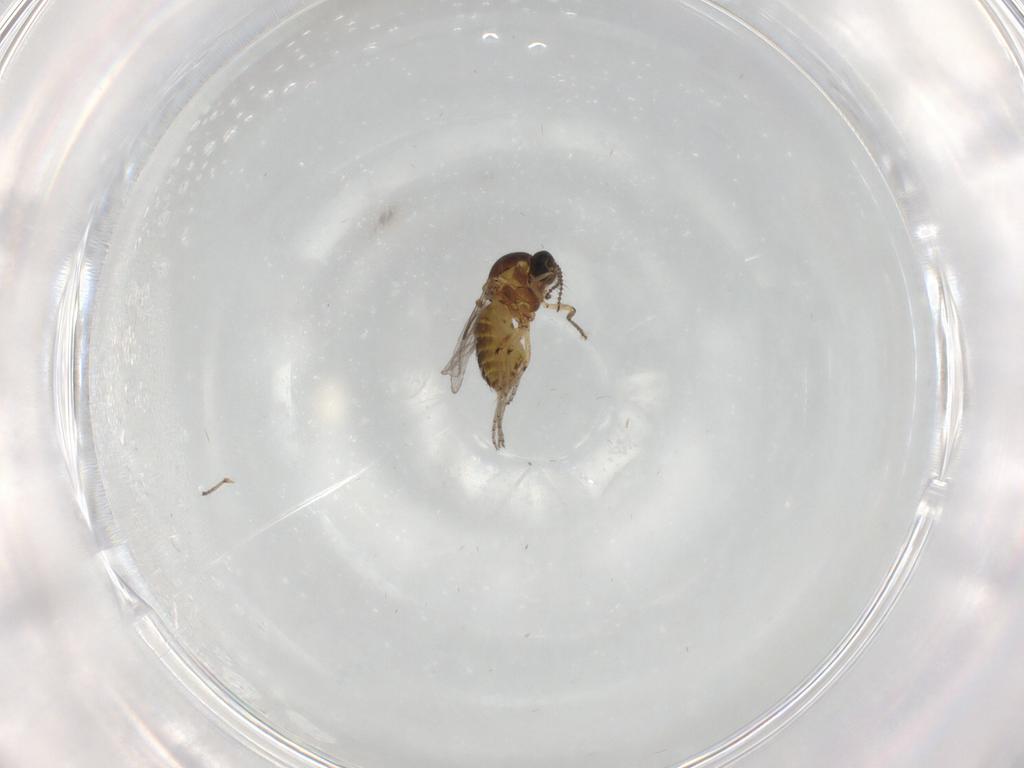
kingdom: Animalia
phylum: Arthropoda
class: Insecta
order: Diptera
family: Ceratopogonidae
